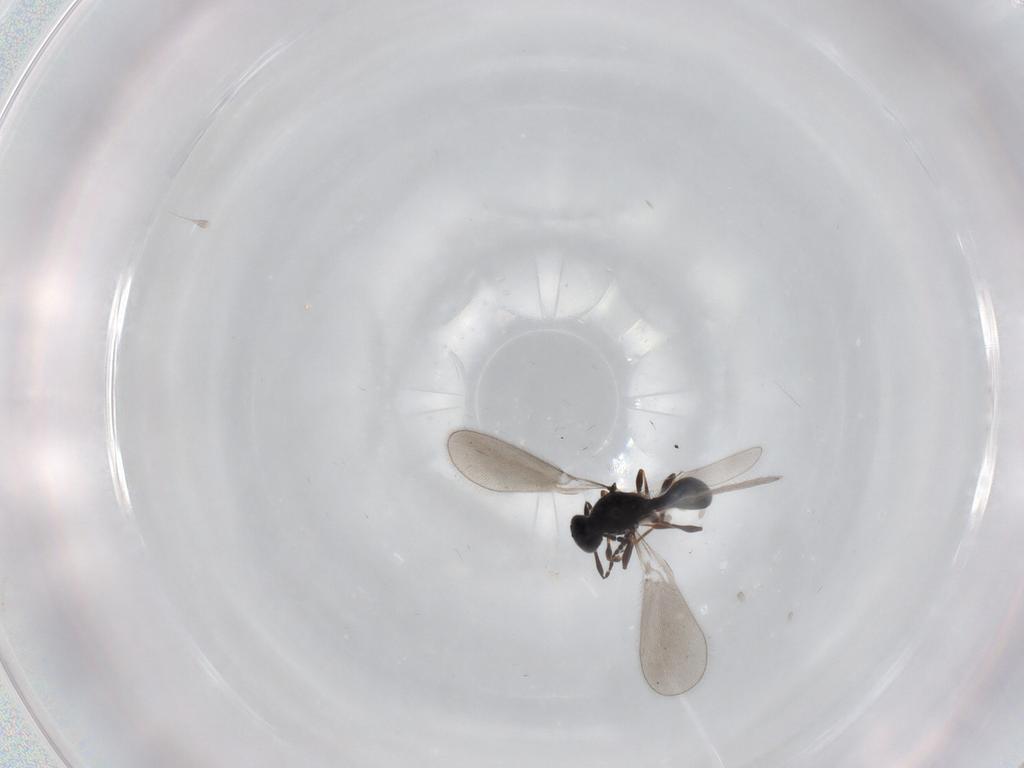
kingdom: Animalia
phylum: Arthropoda
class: Insecta
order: Hymenoptera
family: Platygastridae
